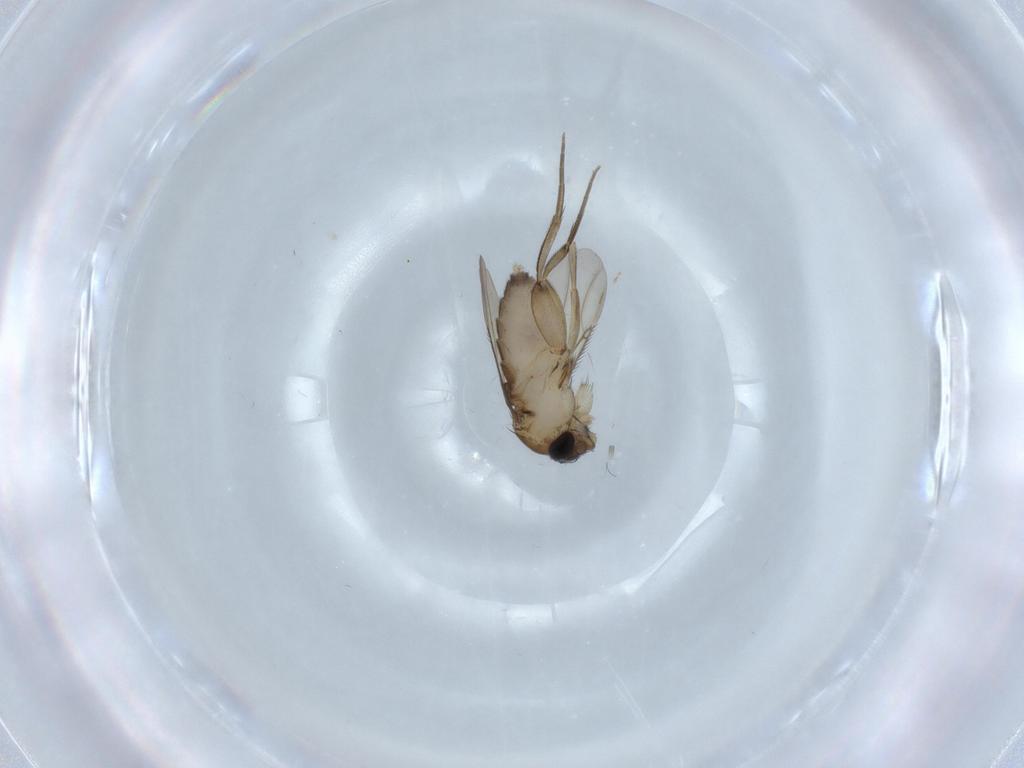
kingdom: Animalia
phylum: Arthropoda
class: Insecta
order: Diptera
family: Phoridae
